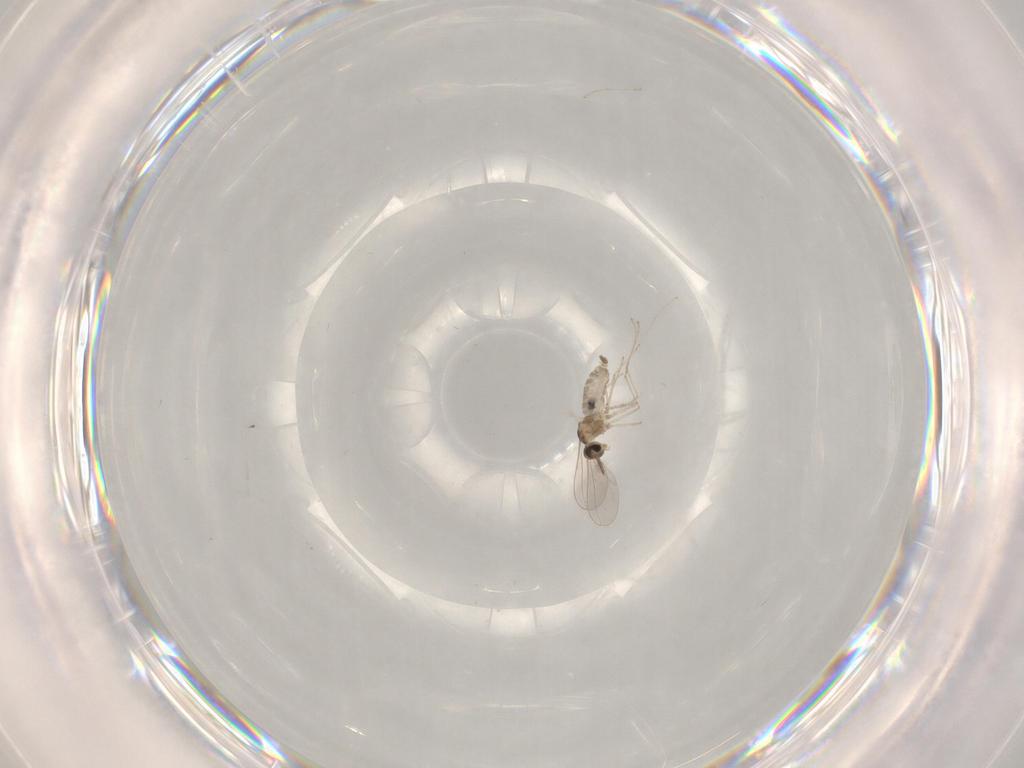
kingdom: Animalia
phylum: Arthropoda
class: Insecta
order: Diptera
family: Cecidomyiidae
